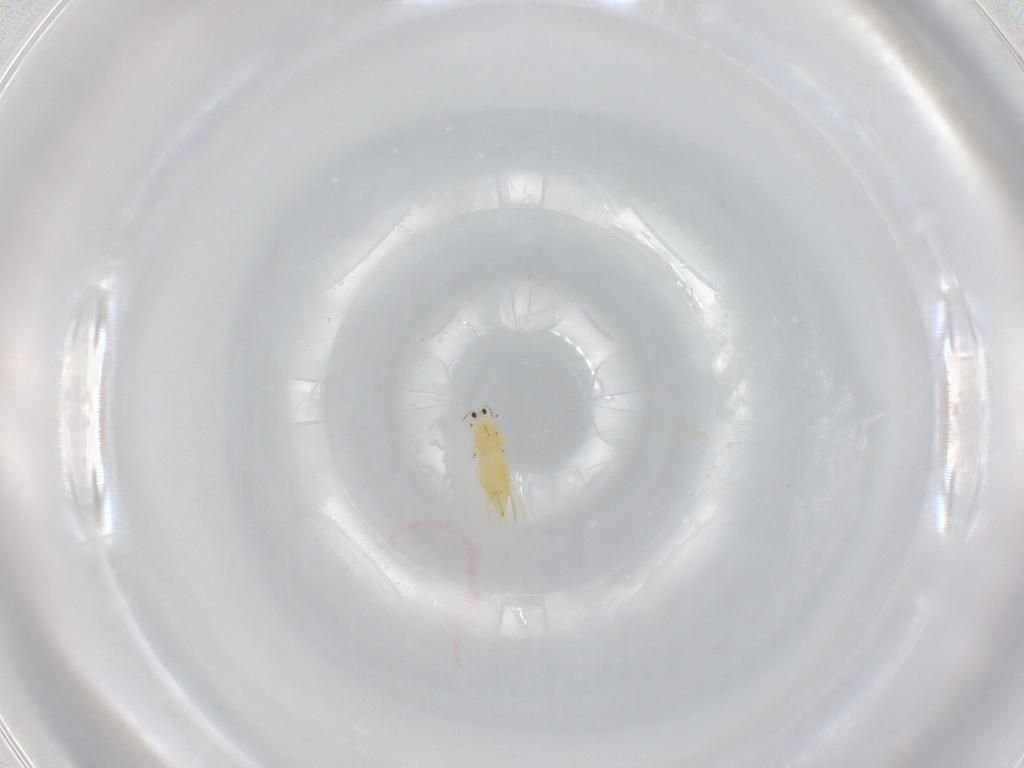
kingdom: Animalia
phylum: Arthropoda
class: Insecta
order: Thysanoptera
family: Thripidae
